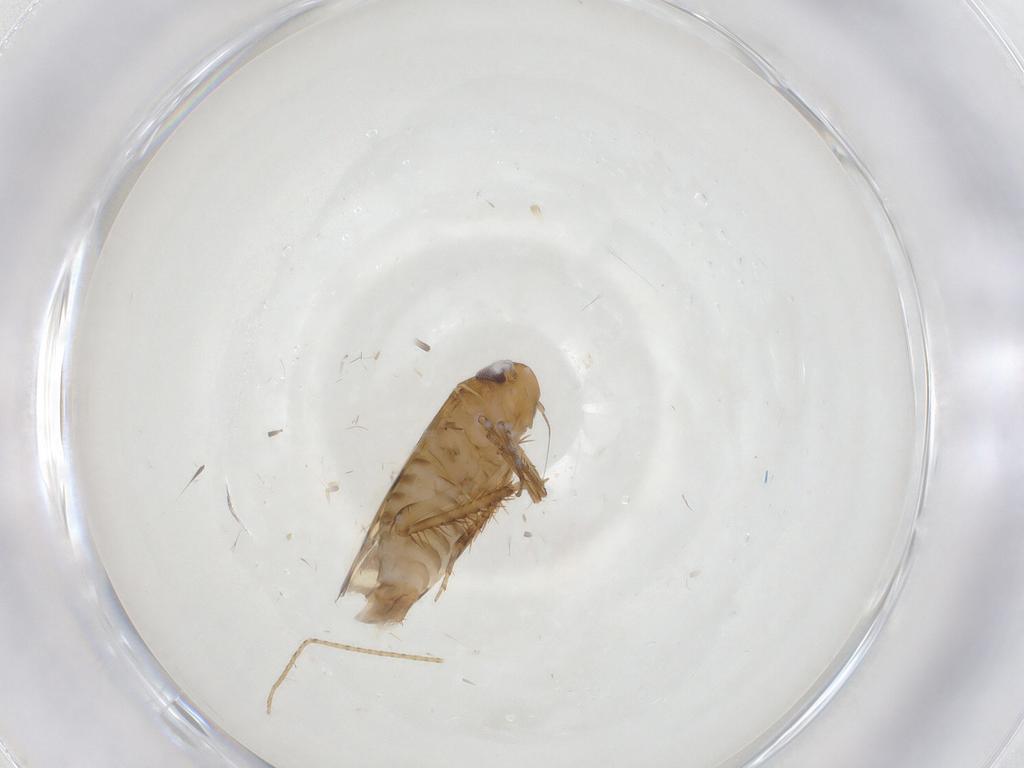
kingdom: Animalia
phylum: Arthropoda
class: Insecta
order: Hemiptera
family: Cicadellidae
